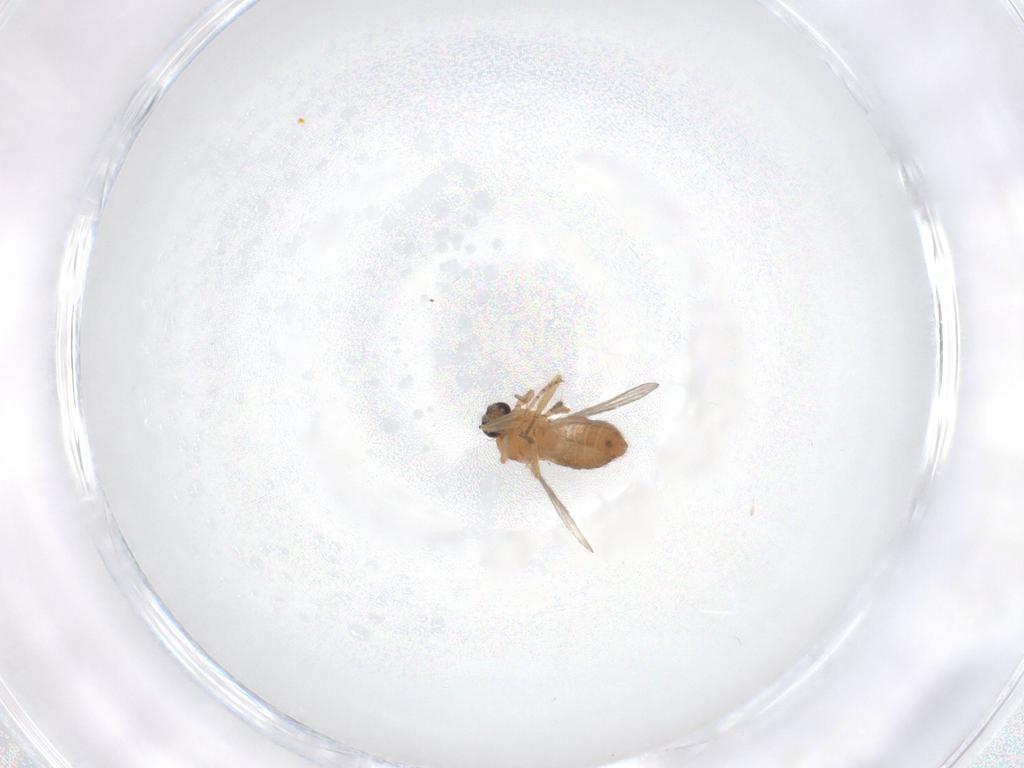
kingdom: Animalia
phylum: Arthropoda
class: Insecta
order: Diptera
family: Ceratopogonidae
